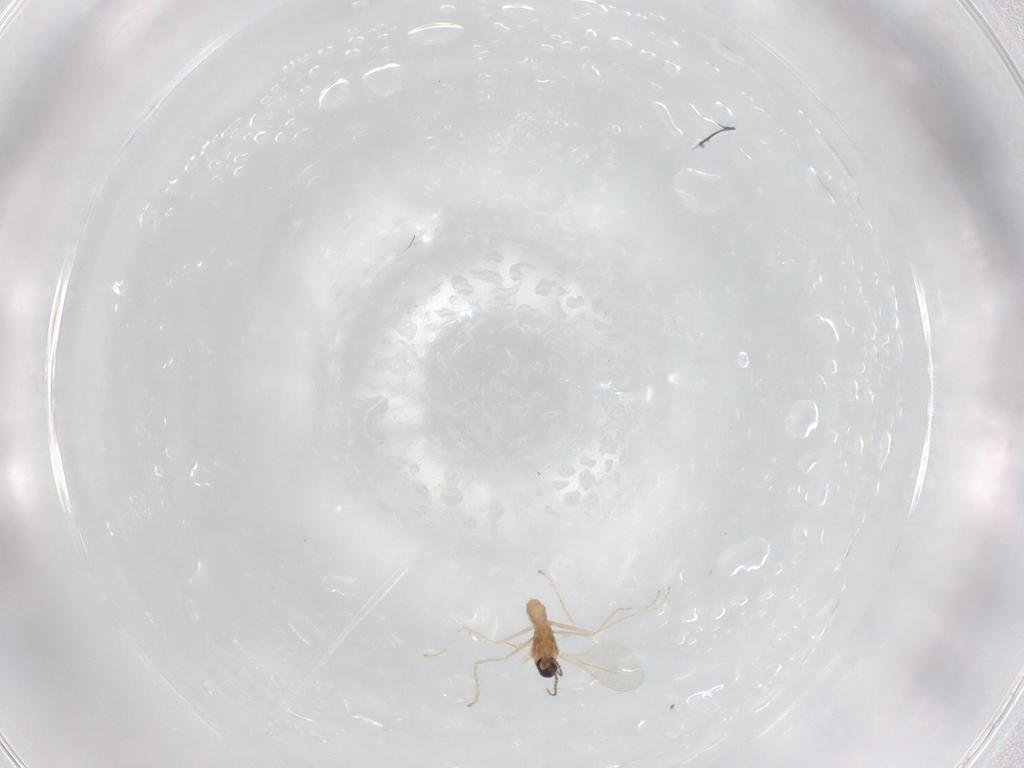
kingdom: Animalia
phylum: Arthropoda
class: Insecta
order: Diptera
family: Cecidomyiidae
